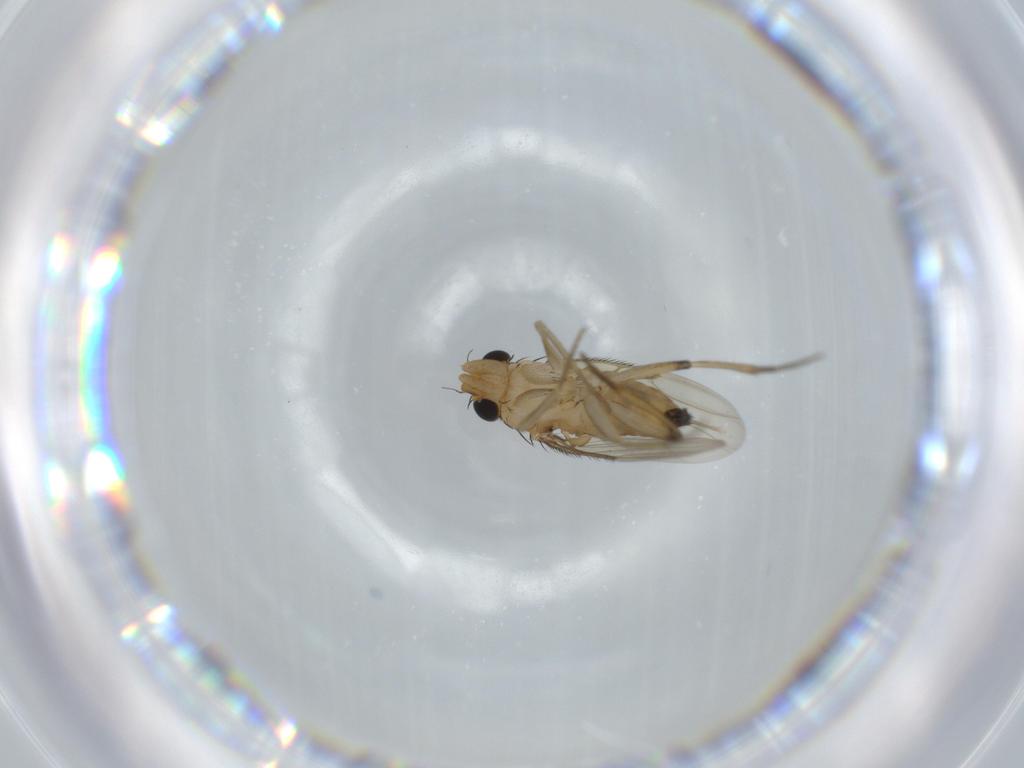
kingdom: Animalia
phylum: Arthropoda
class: Insecta
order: Diptera
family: Phoridae
